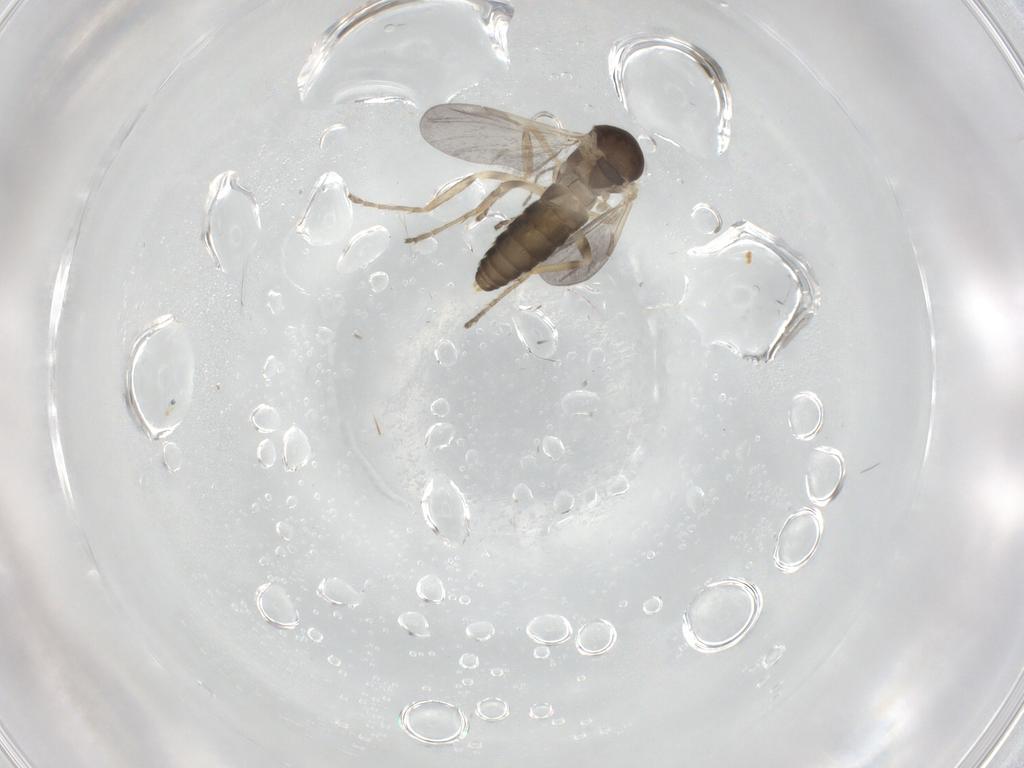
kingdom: Animalia
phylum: Arthropoda
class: Insecta
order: Diptera
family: Ceratopogonidae
